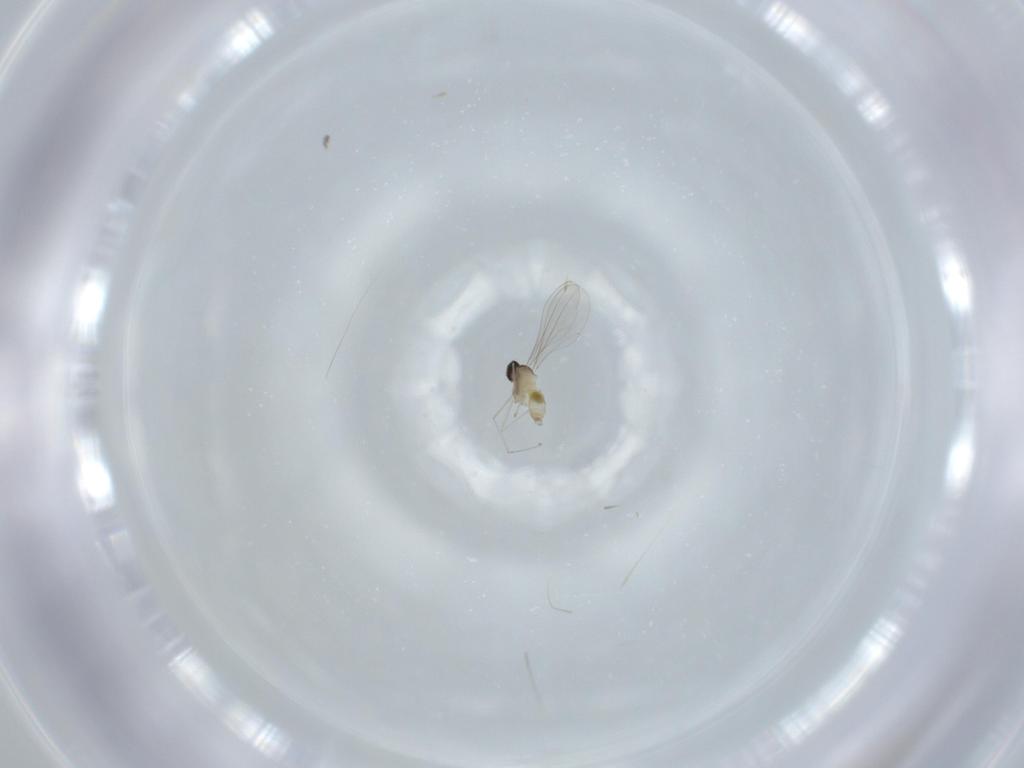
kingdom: Animalia
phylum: Arthropoda
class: Insecta
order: Diptera
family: Cecidomyiidae
